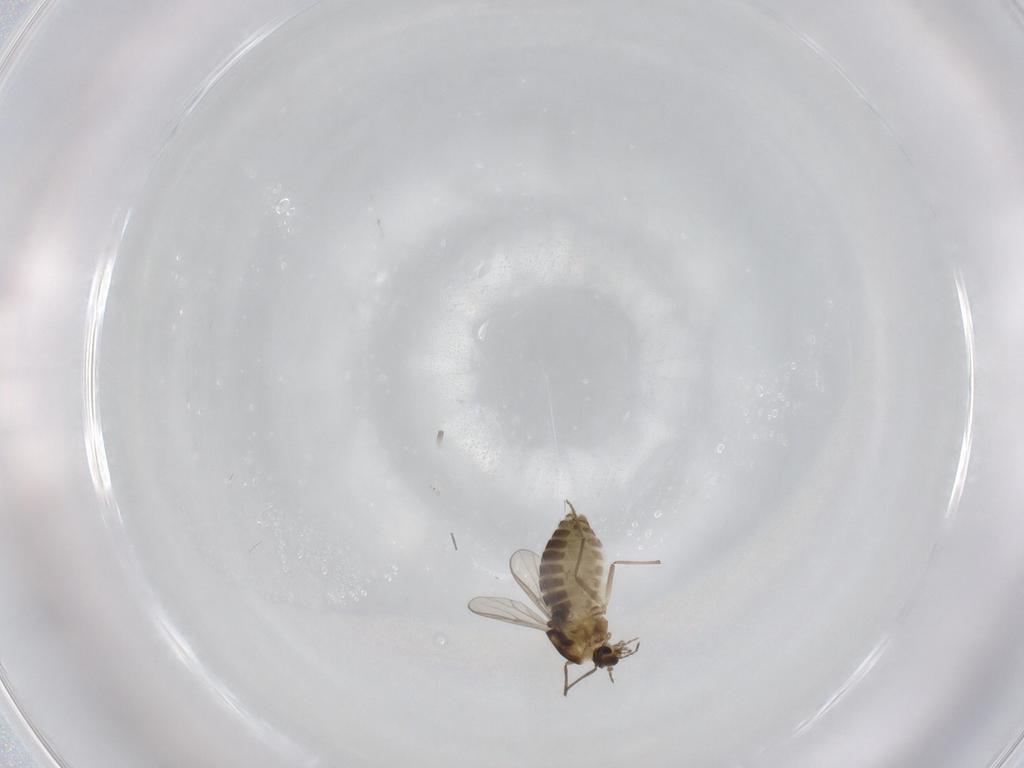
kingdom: Animalia
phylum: Arthropoda
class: Insecta
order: Diptera
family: Chironomidae
